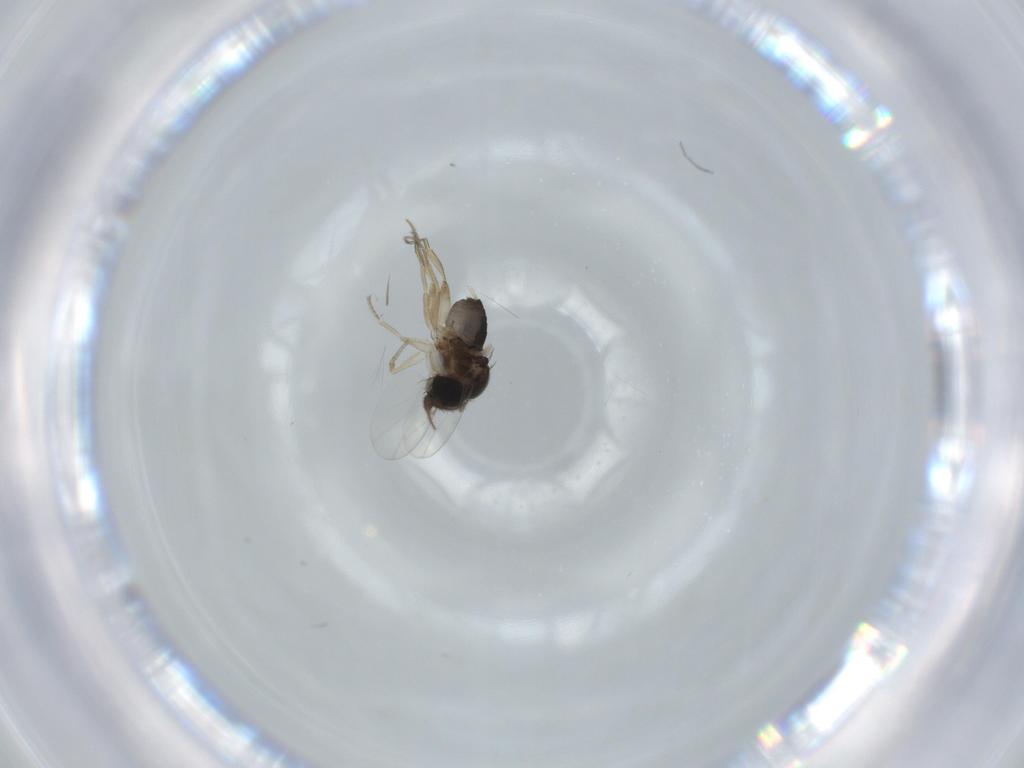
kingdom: Animalia
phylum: Arthropoda
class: Insecta
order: Diptera
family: Phoridae
